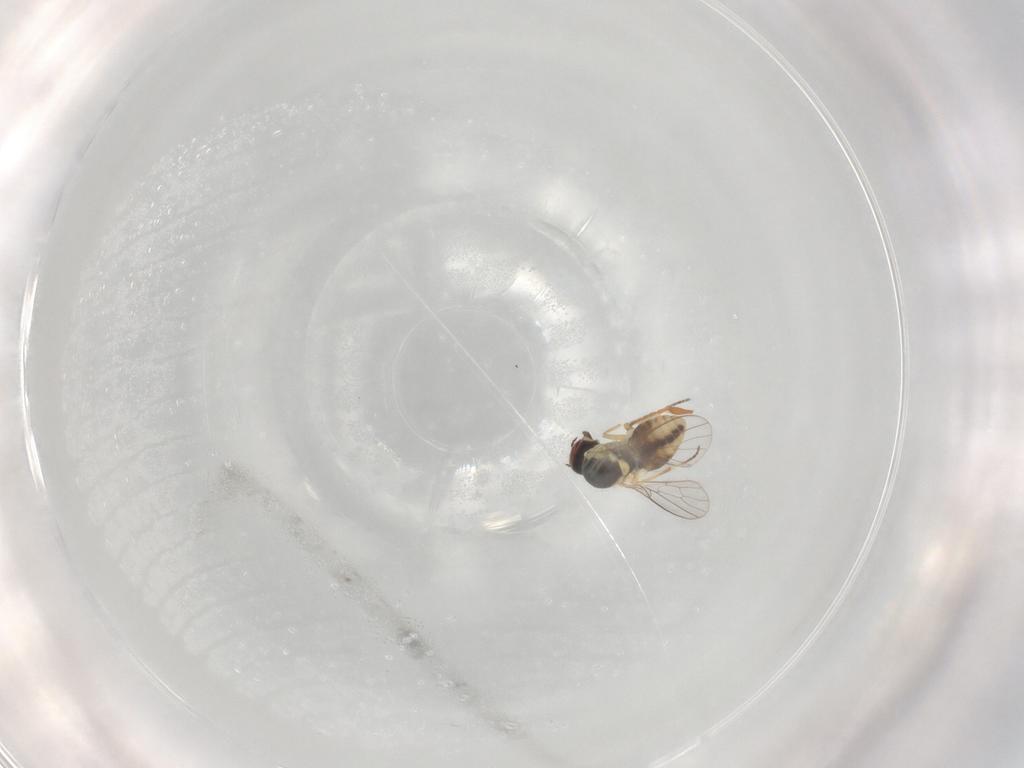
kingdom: Animalia
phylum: Arthropoda
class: Insecta
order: Diptera
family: Mythicomyiidae
